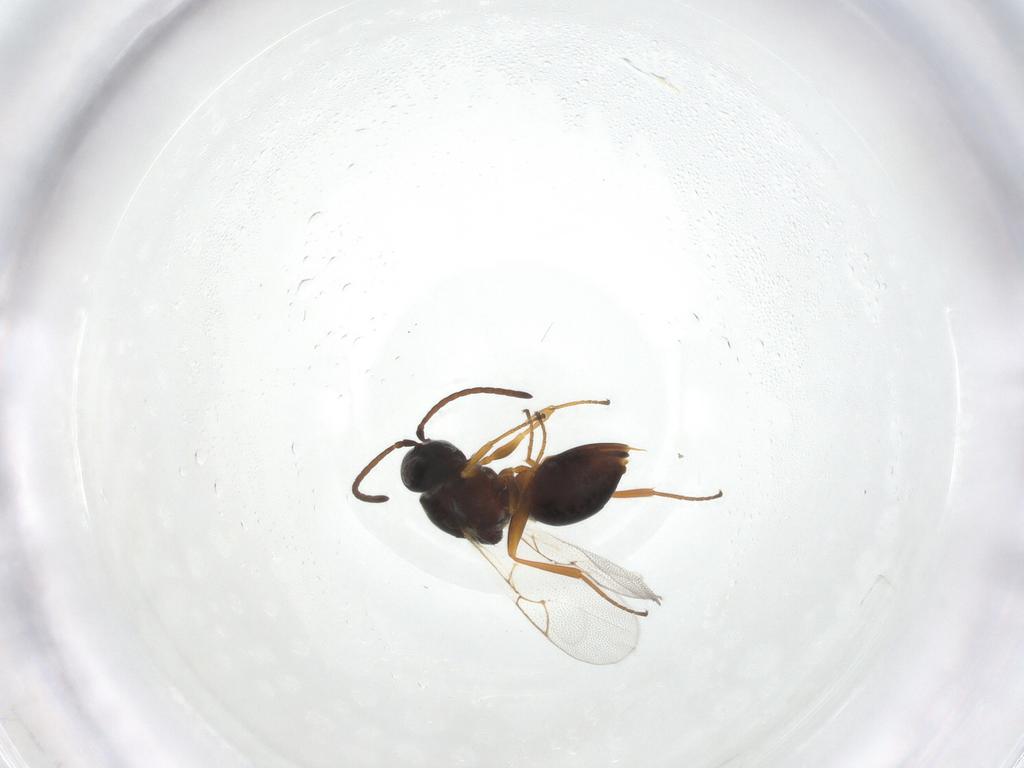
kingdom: Animalia
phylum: Arthropoda
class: Insecta
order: Hymenoptera
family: Figitidae
